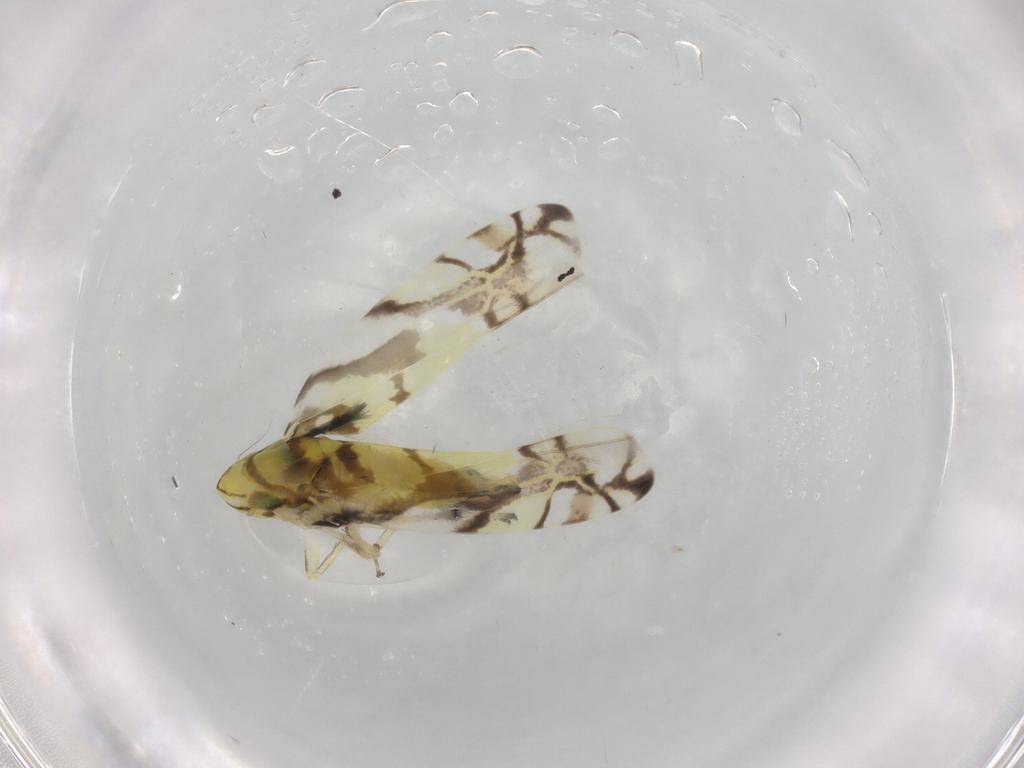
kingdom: Animalia
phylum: Arthropoda
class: Insecta
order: Hemiptera
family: Cicadellidae
